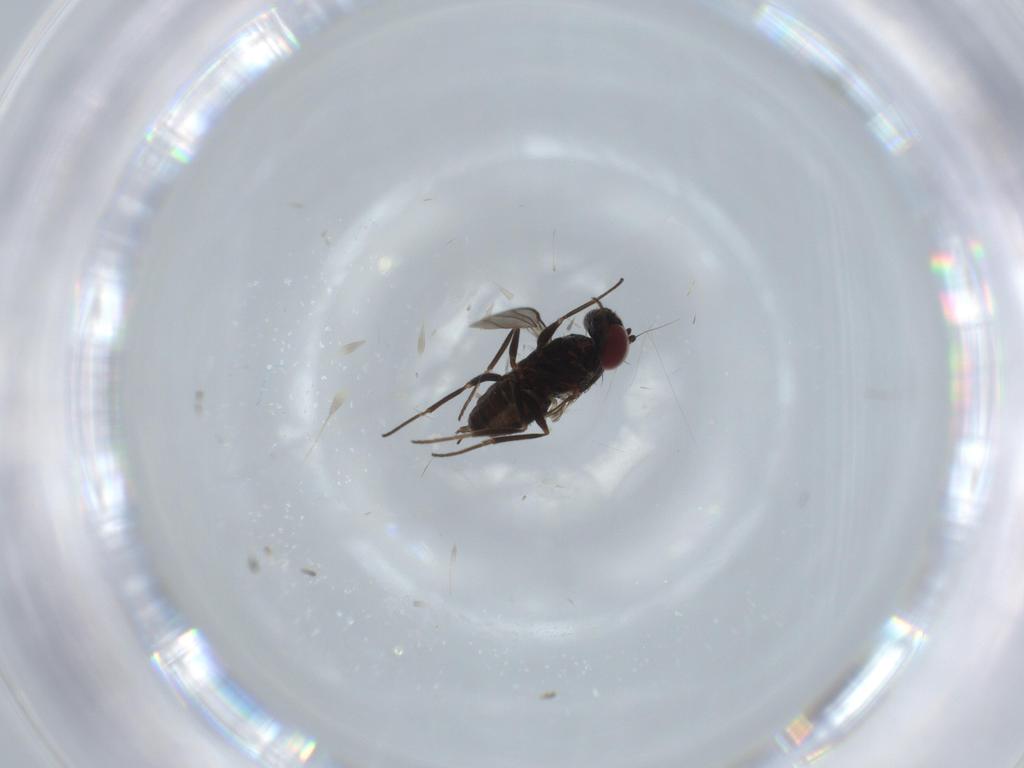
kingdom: Animalia
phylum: Arthropoda
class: Insecta
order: Diptera
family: Dolichopodidae
